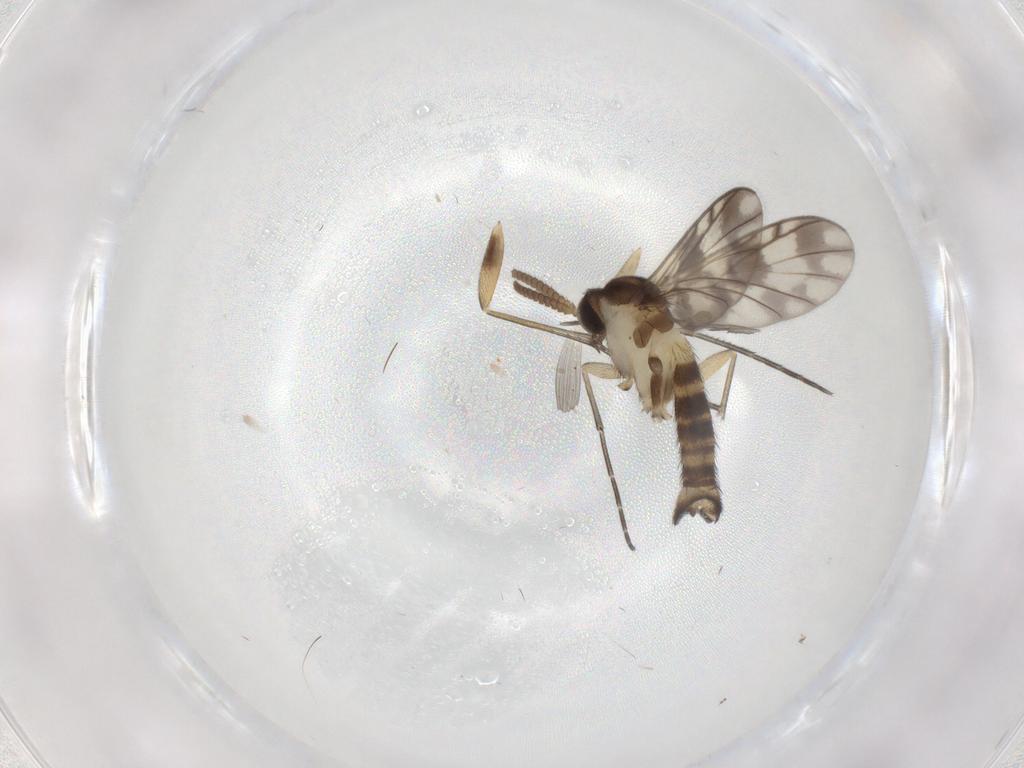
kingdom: Animalia
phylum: Arthropoda
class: Insecta
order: Diptera
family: Keroplatidae
